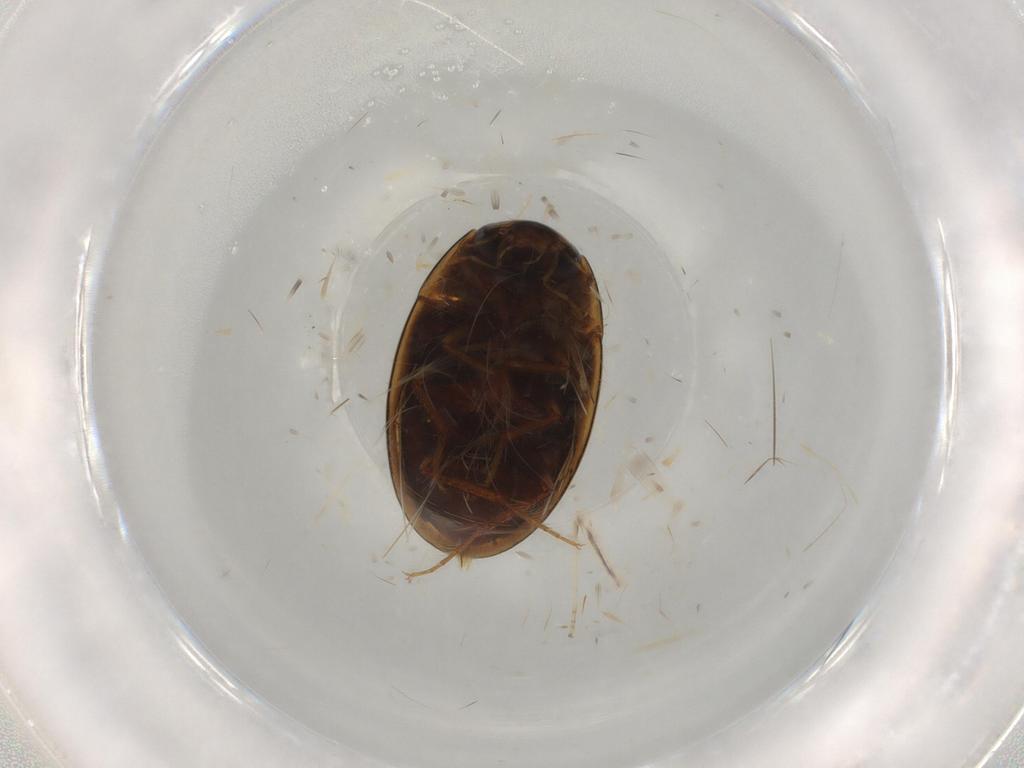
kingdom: Animalia
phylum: Arthropoda
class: Insecta
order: Coleoptera
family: Hydrophilidae
